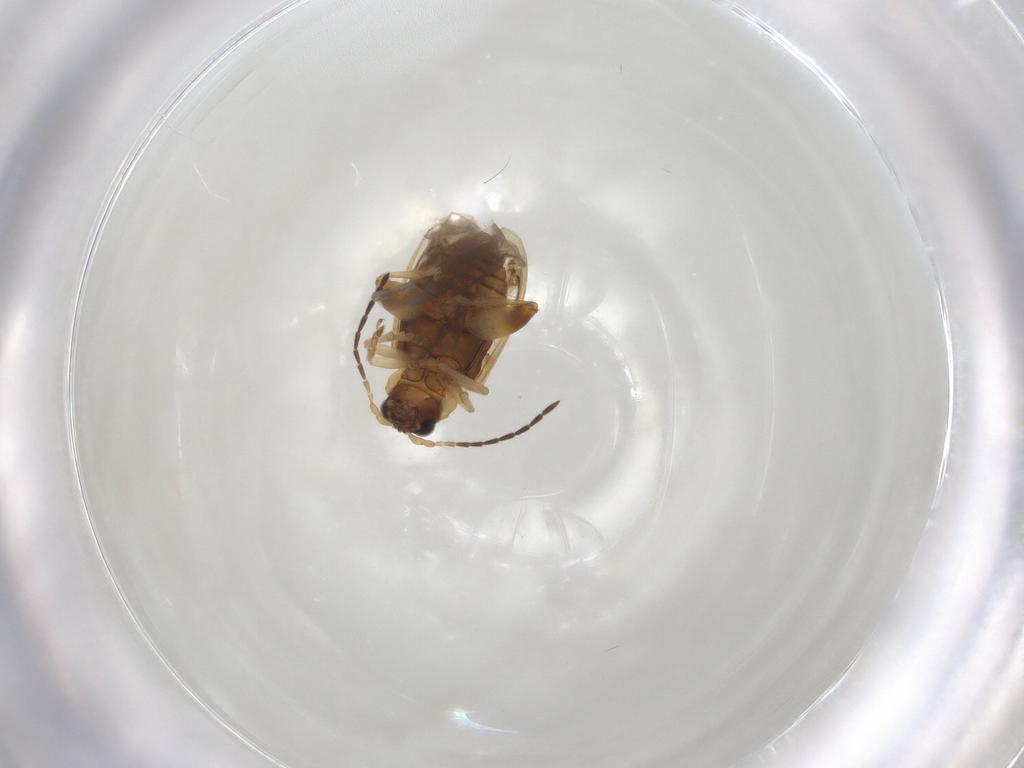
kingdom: Animalia
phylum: Arthropoda
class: Insecta
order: Coleoptera
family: Chrysomelidae
